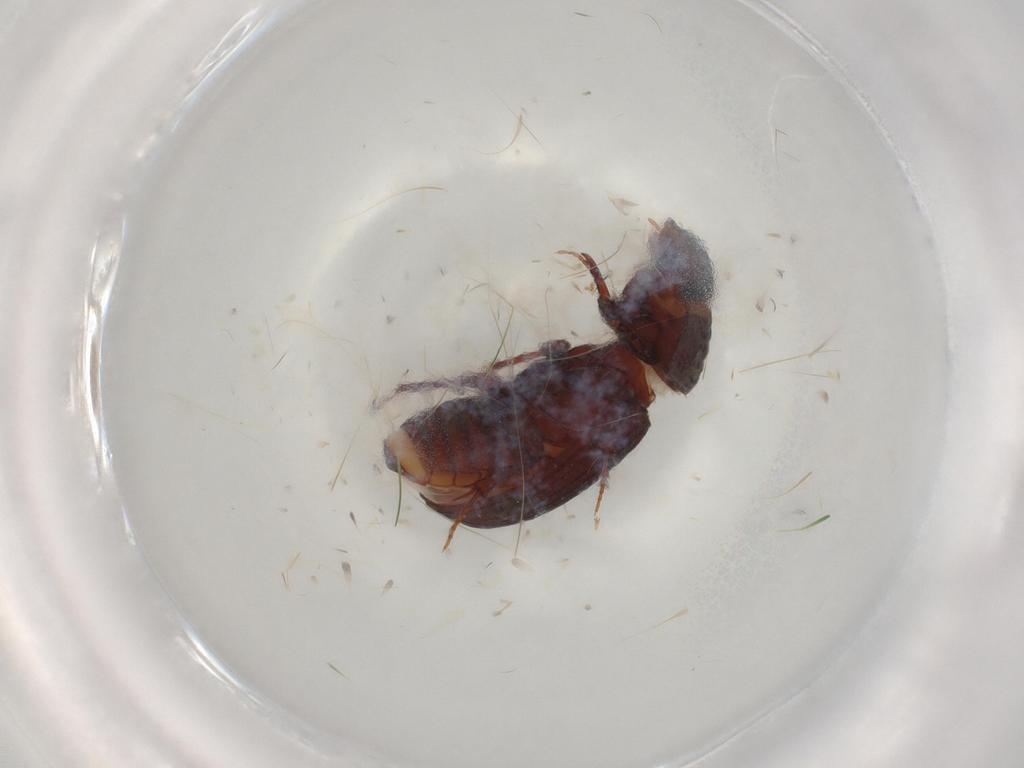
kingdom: Animalia
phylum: Arthropoda
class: Insecta
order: Coleoptera
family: Carabidae
